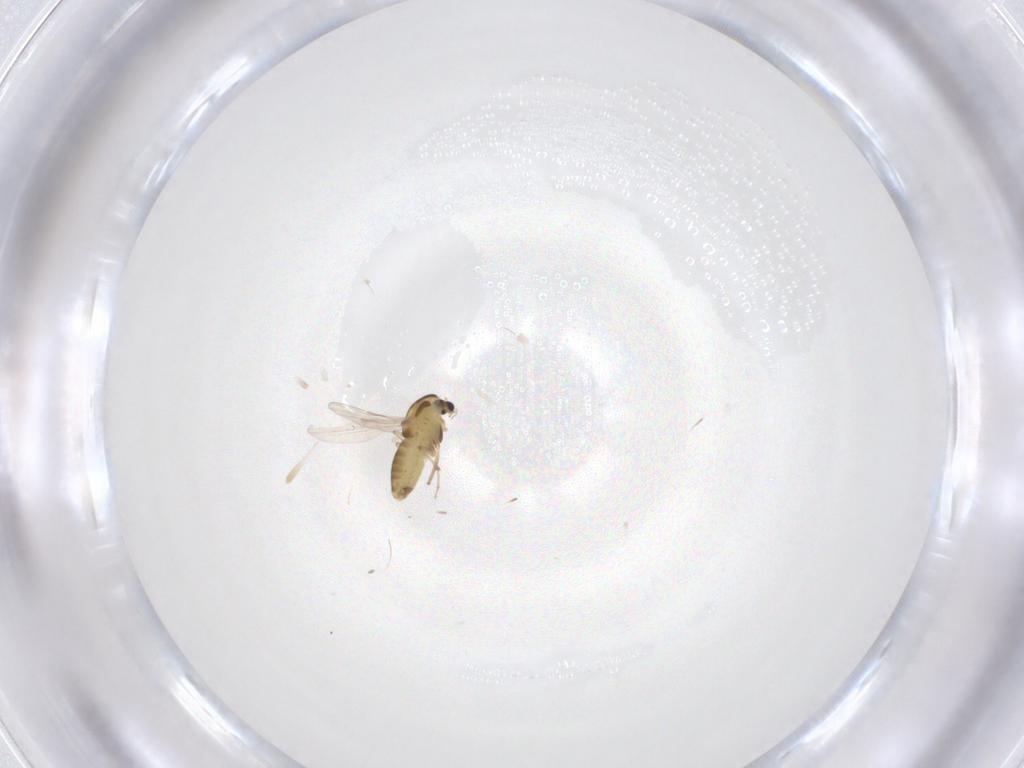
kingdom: Animalia
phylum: Arthropoda
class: Insecta
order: Diptera
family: Chironomidae
